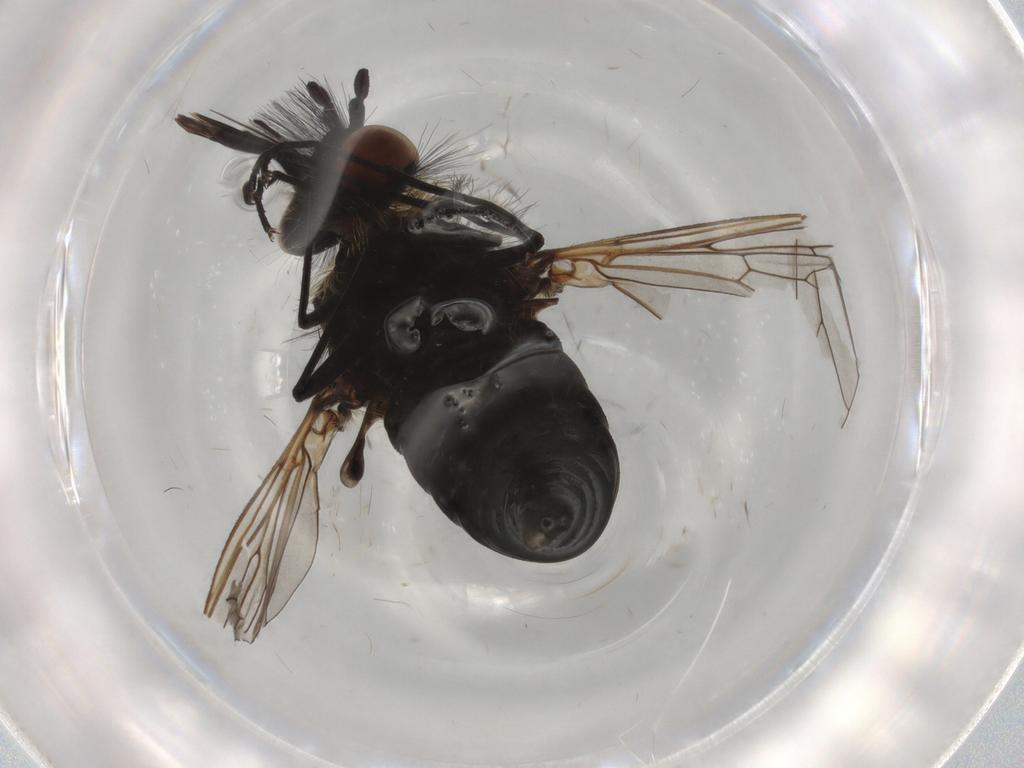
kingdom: Animalia
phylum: Arthropoda
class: Insecta
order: Diptera
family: Bombyliidae
